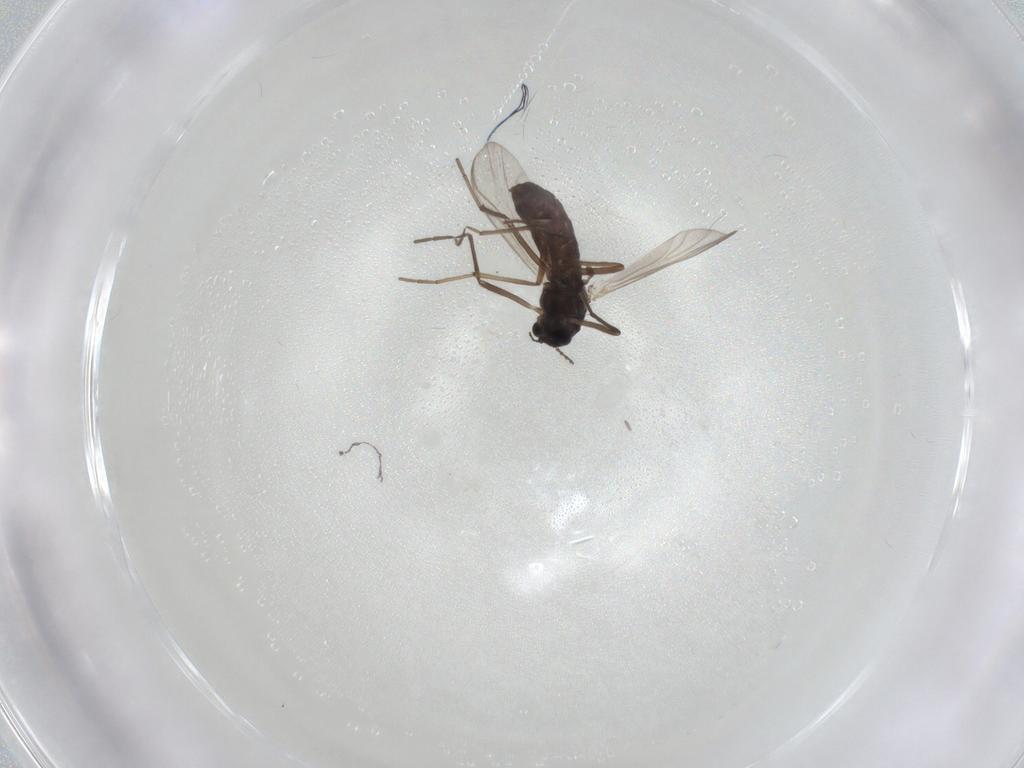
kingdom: Animalia
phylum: Arthropoda
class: Insecta
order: Diptera
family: Chironomidae
